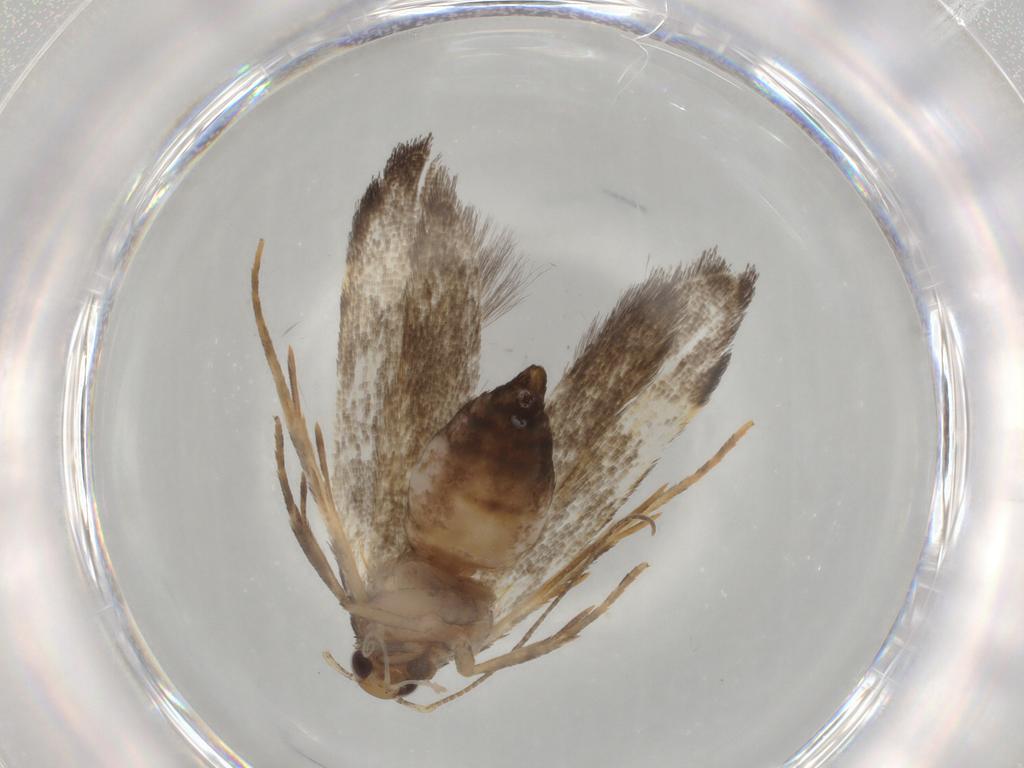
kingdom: Animalia
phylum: Arthropoda
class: Insecta
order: Lepidoptera
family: Cosmopterigidae
